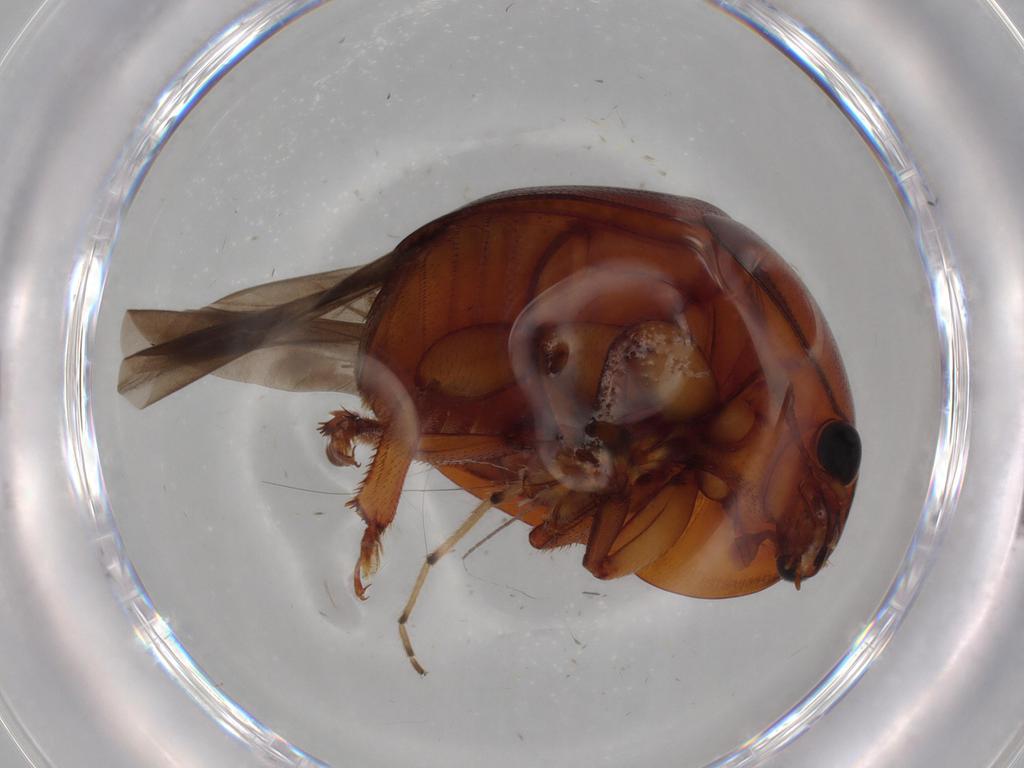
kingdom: Animalia
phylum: Arthropoda
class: Insecta
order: Coleoptera
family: Nitidulidae
